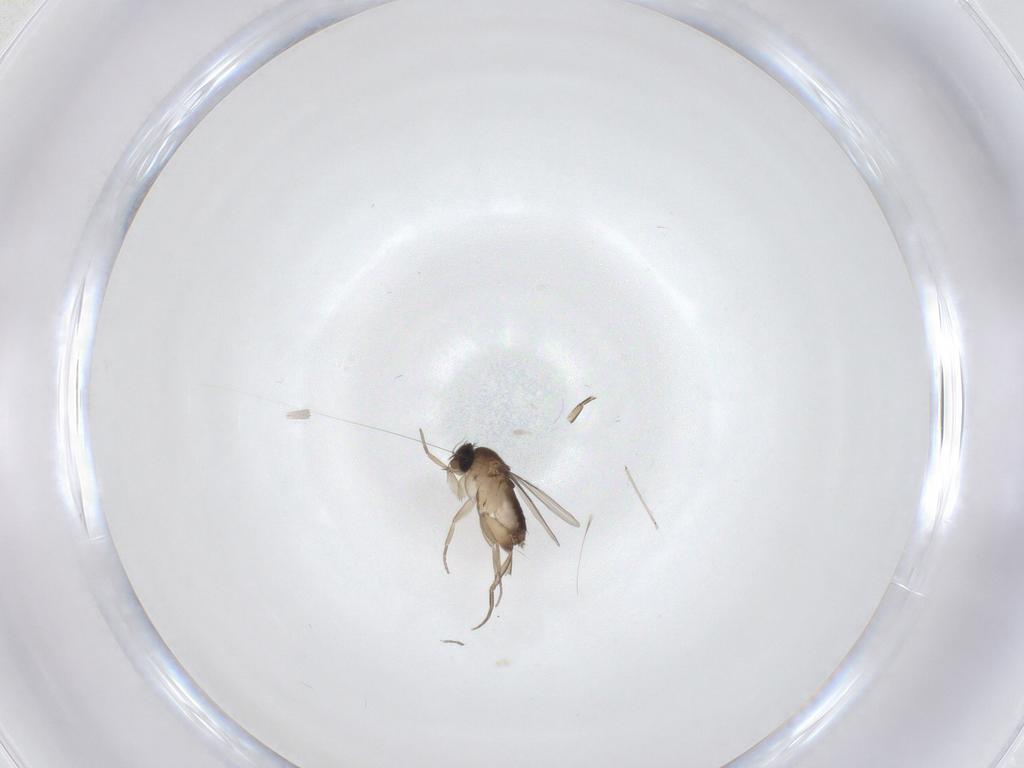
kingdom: Animalia
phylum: Arthropoda
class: Insecta
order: Diptera
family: Phoridae
